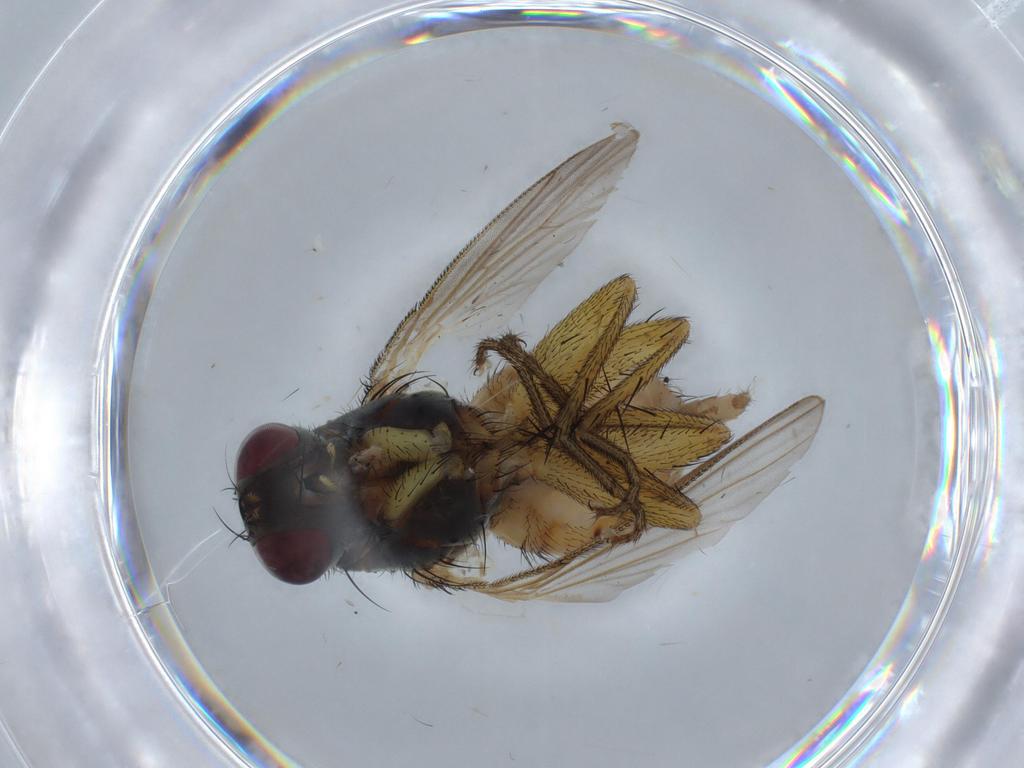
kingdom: Animalia
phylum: Arthropoda
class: Insecta
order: Diptera
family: Muscidae
